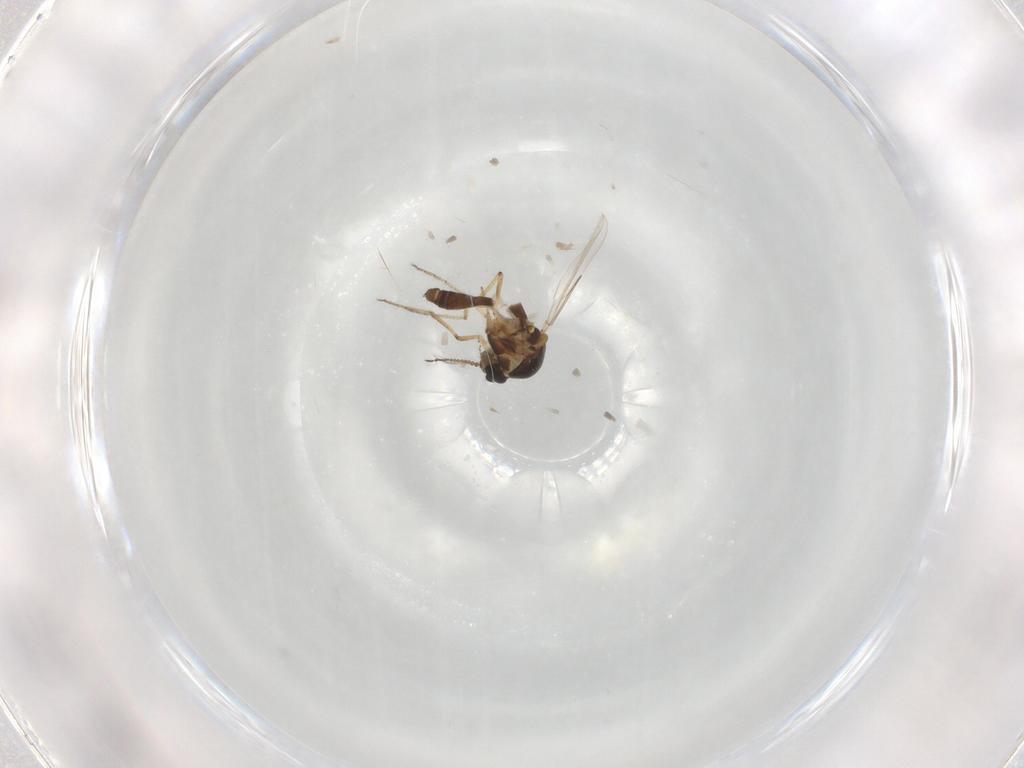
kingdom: Animalia
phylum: Arthropoda
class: Insecta
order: Diptera
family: Ceratopogonidae
